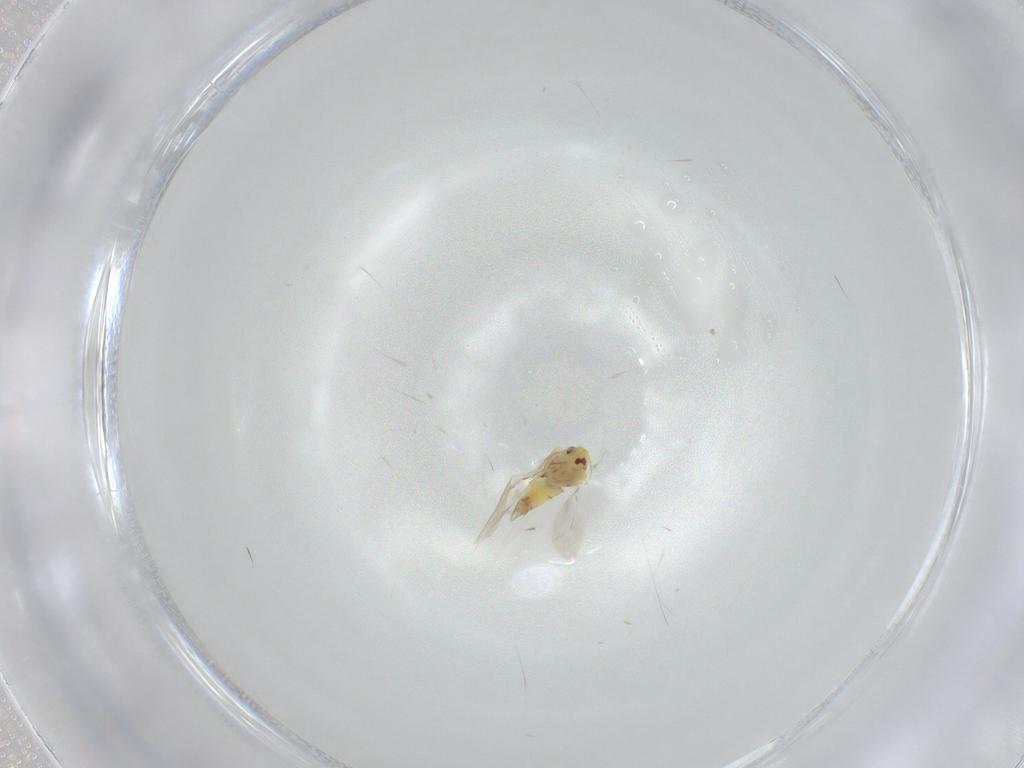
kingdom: Animalia
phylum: Arthropoda
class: Insecta
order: Hemiptera
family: Aleyrodidae
